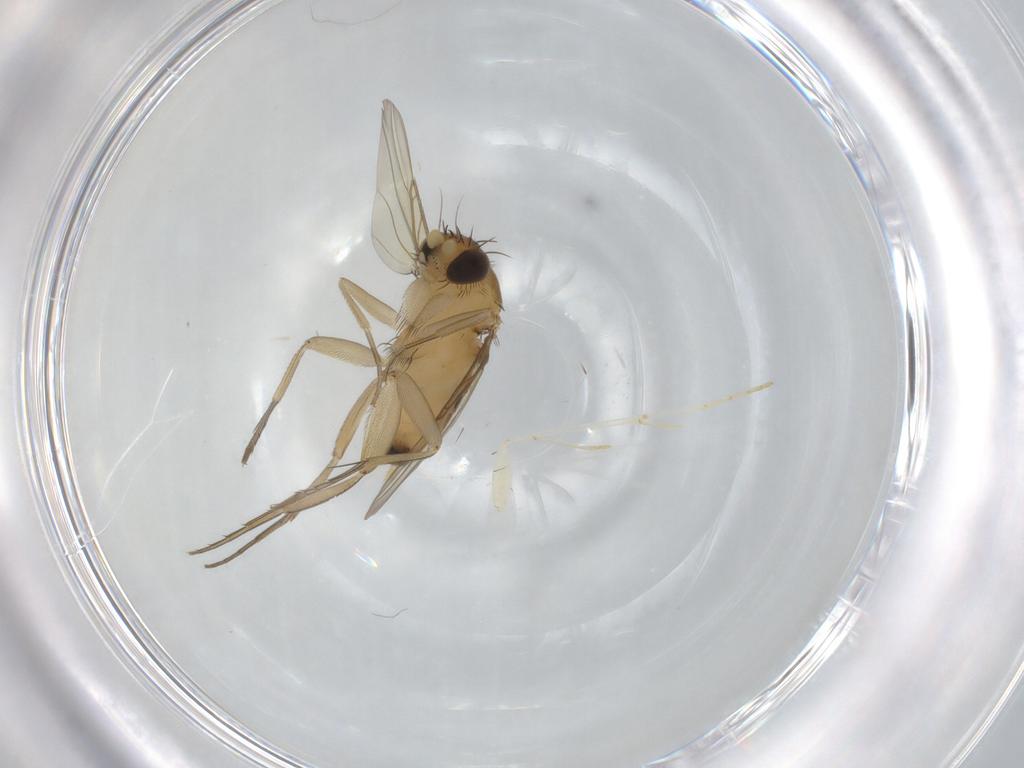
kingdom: Animalia
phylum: Arthropoda
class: Insecta
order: Diptera
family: Phoridae
